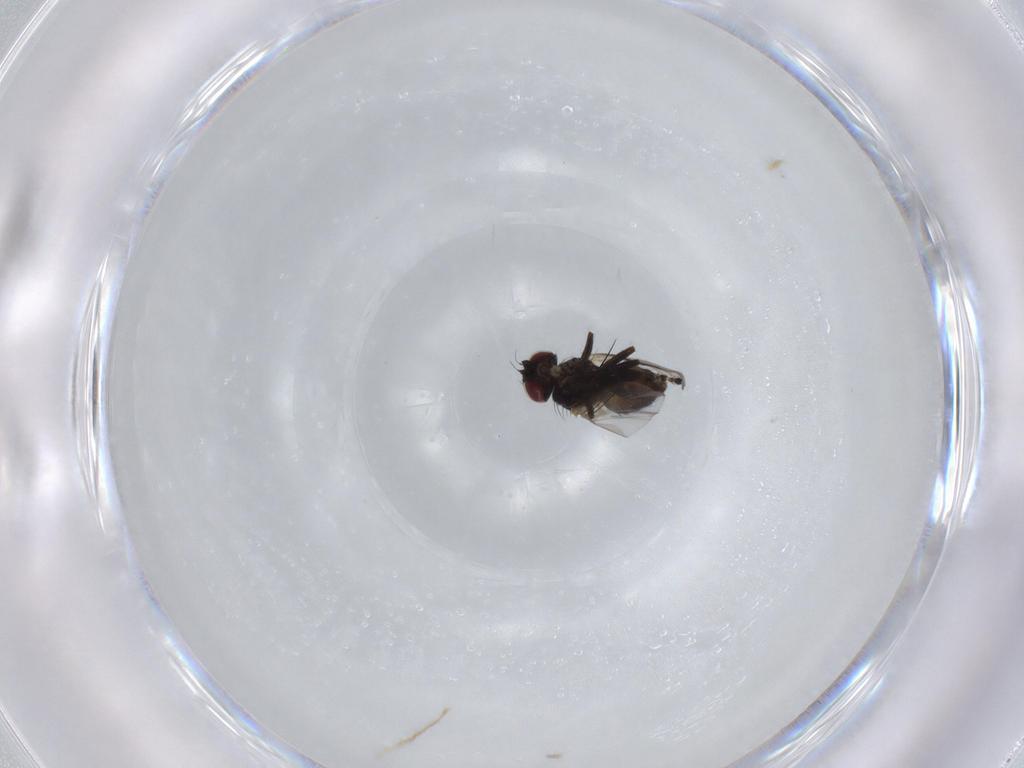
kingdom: Animalia
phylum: Arthropoda
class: Insecta
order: Diptera
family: Agromyzidae
